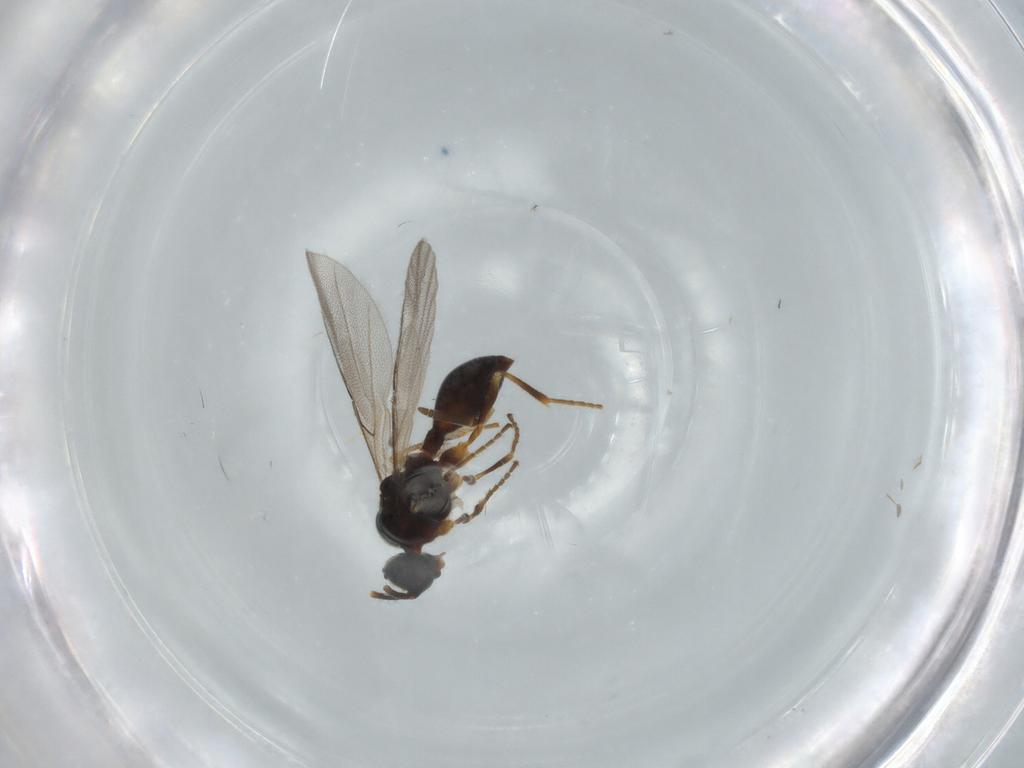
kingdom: Animalia
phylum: Arthropoda
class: Insecta
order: Hymenoptera
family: Diapriidae
